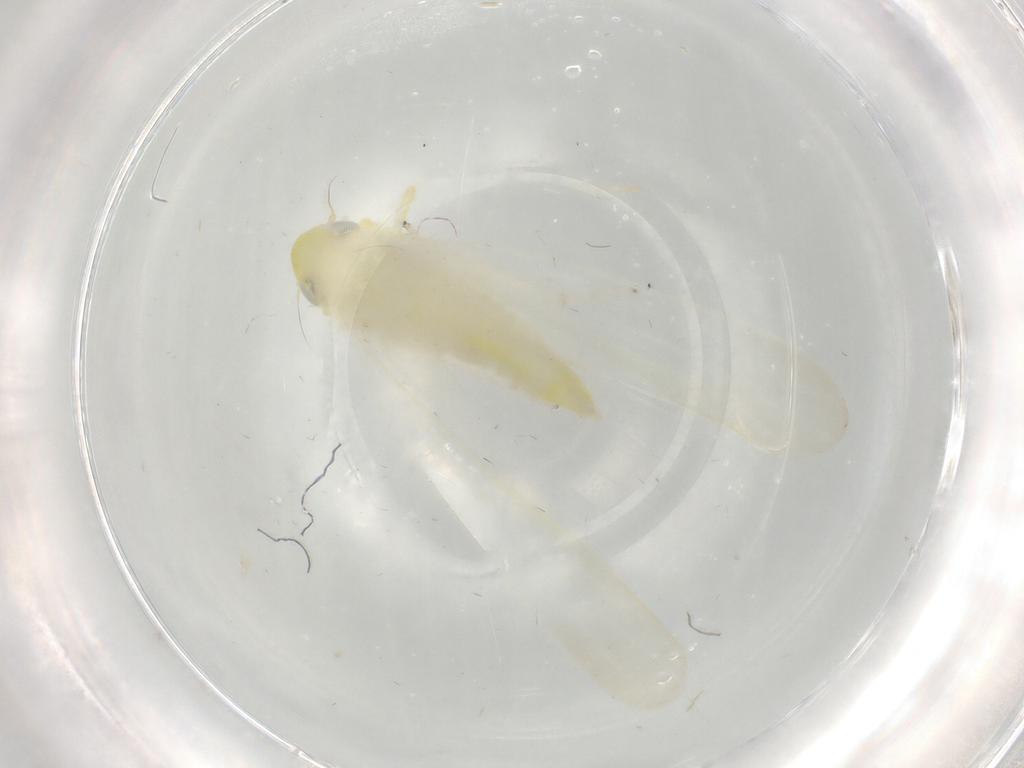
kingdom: Animalia
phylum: Arthropoda
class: Insecta
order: Hemiptera
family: Cicadellidae
